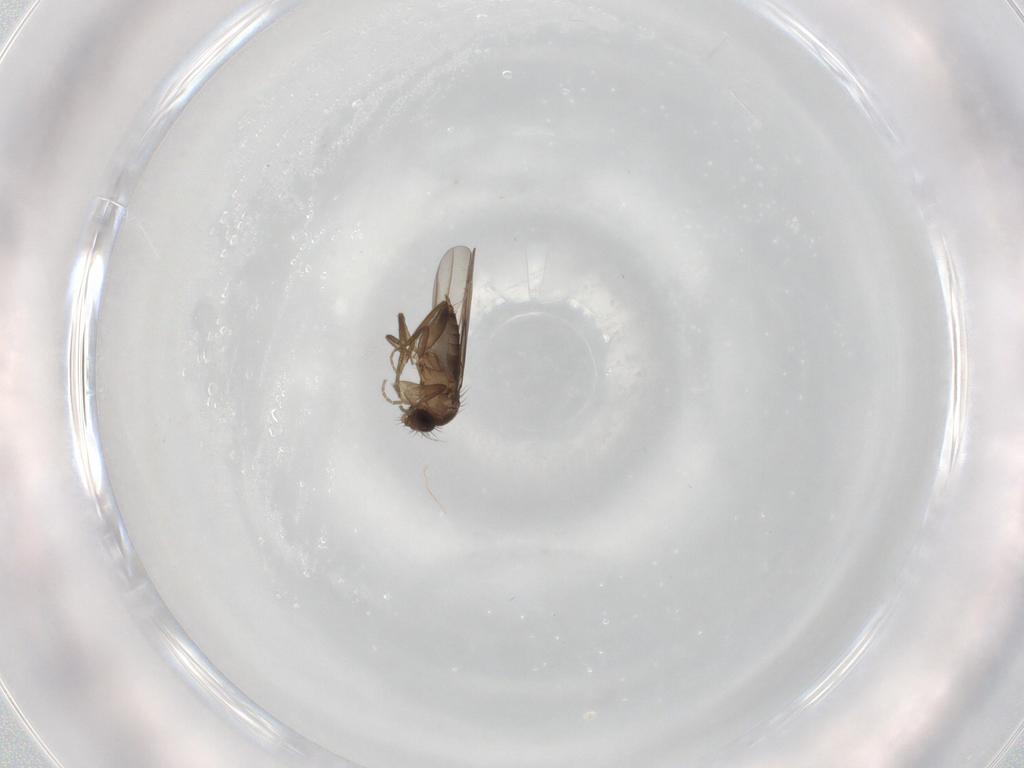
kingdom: Animalia
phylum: Arthropoda
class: Insecta
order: Diptera
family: Phoridae
